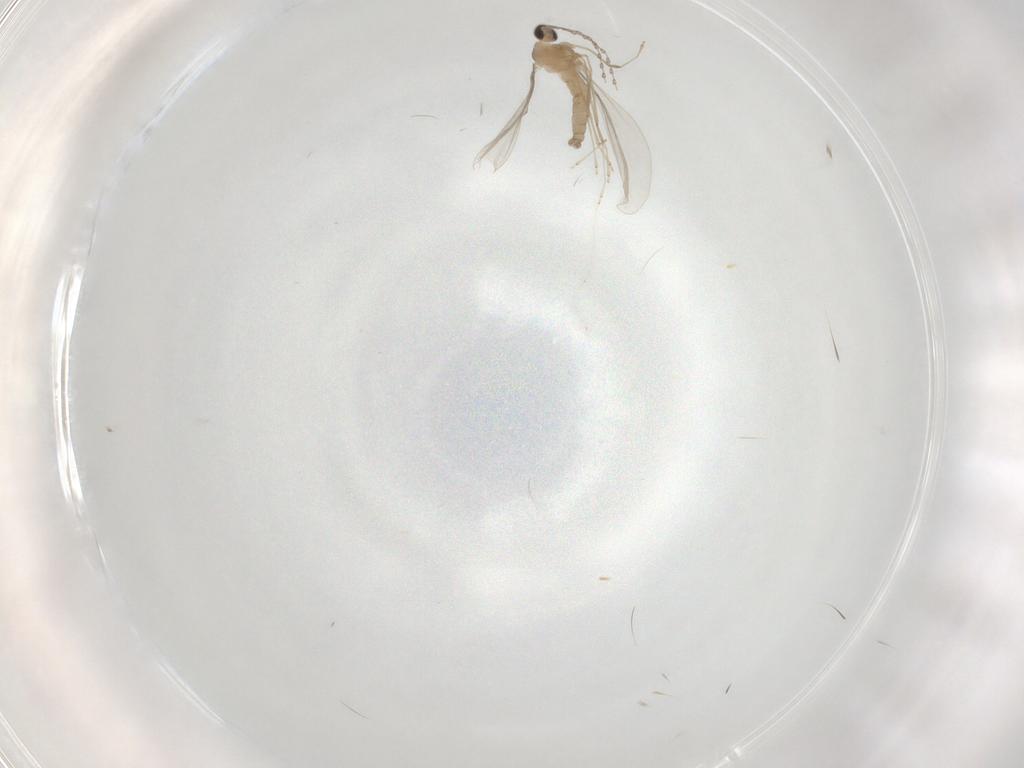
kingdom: Animalia
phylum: Arthropoda
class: Insecta
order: Diptera
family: Cecidomyiidae
